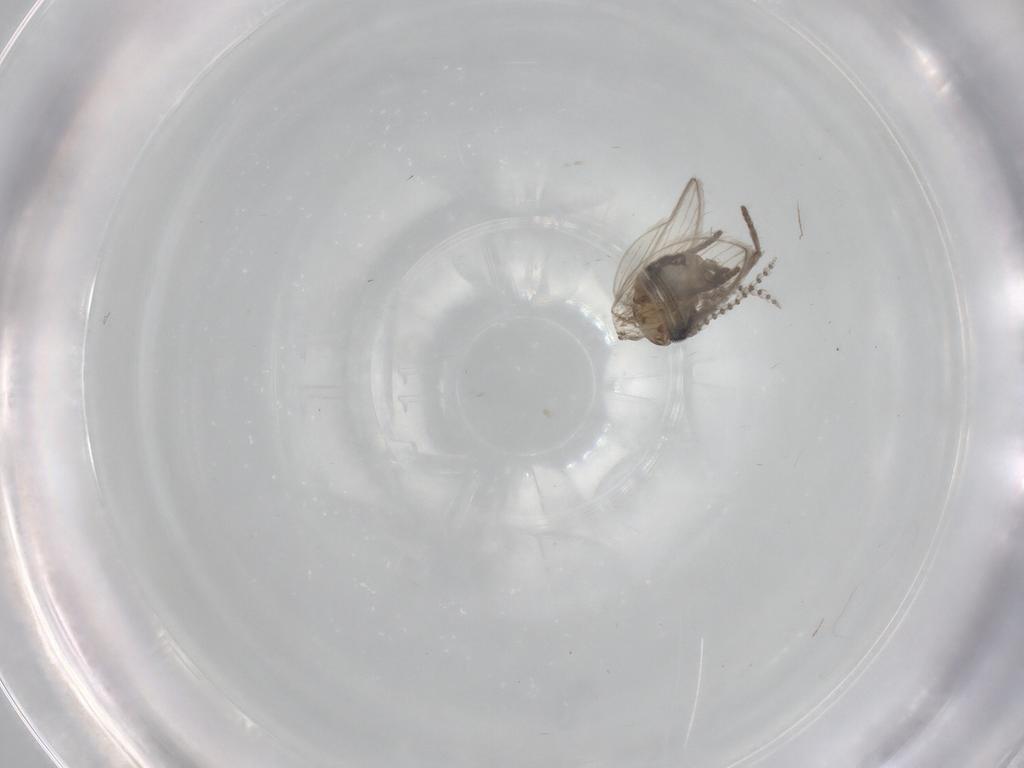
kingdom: Animalia
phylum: Arthropoda
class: Insecta
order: Diptera
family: Psychodidae
